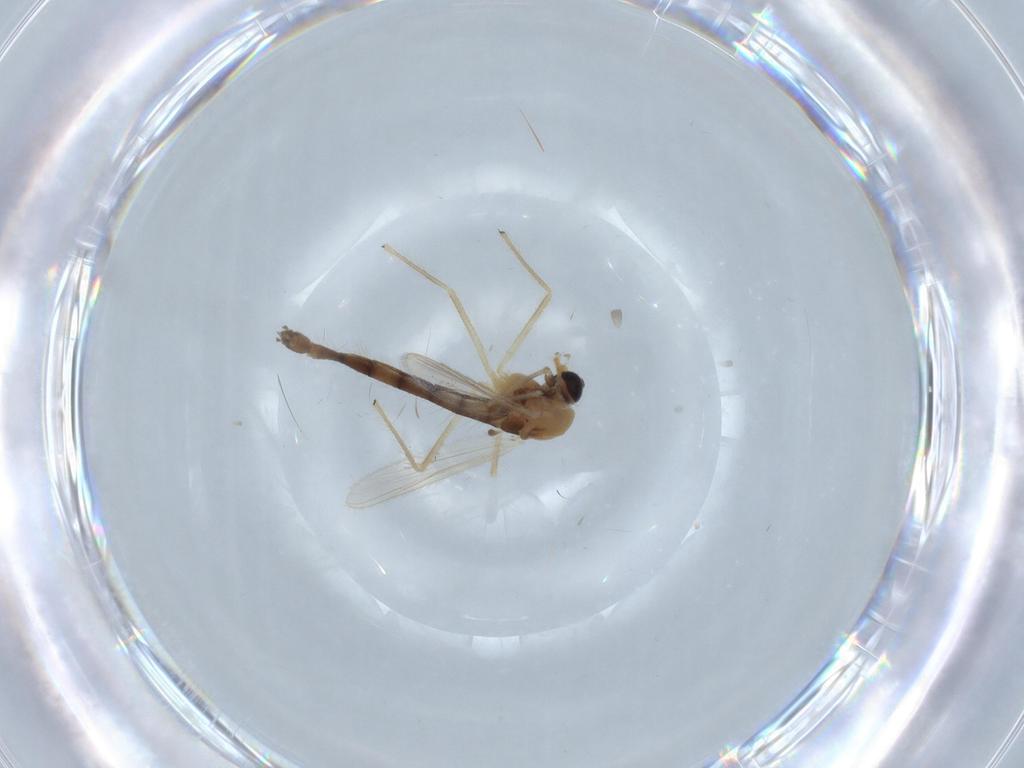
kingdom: Animalia
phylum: Arthropoda
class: Insecta
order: Diptera
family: Chironomidae
